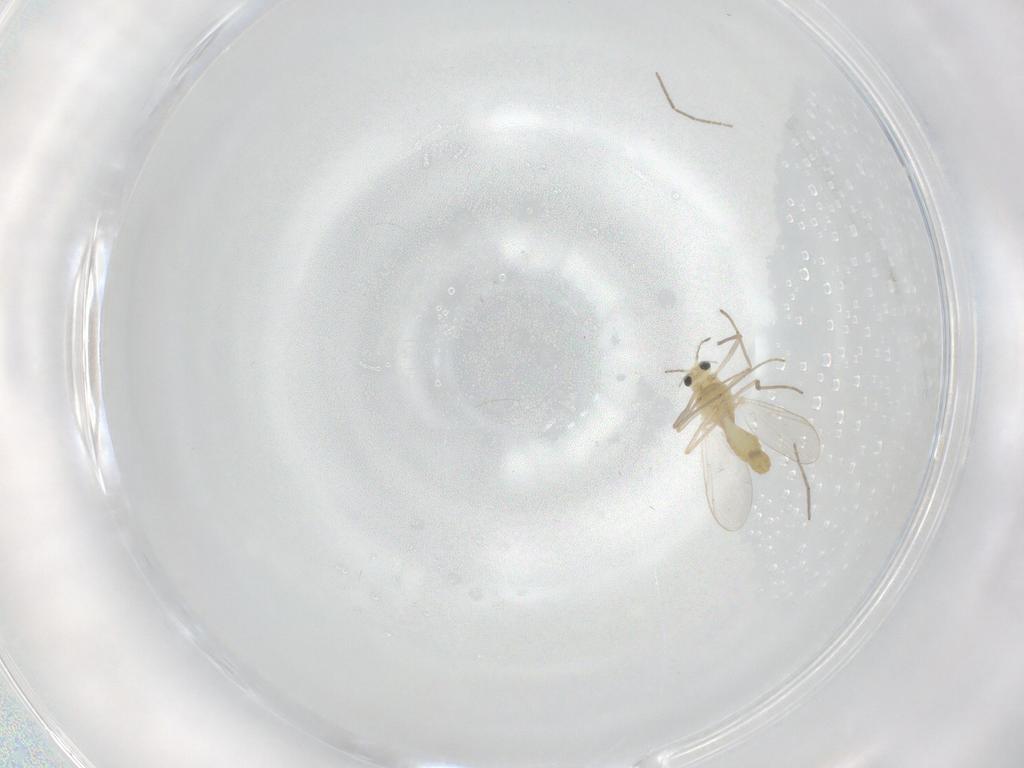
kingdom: Animalia
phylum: Arthropoda
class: Insecta
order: Diptera
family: Chironomidae
